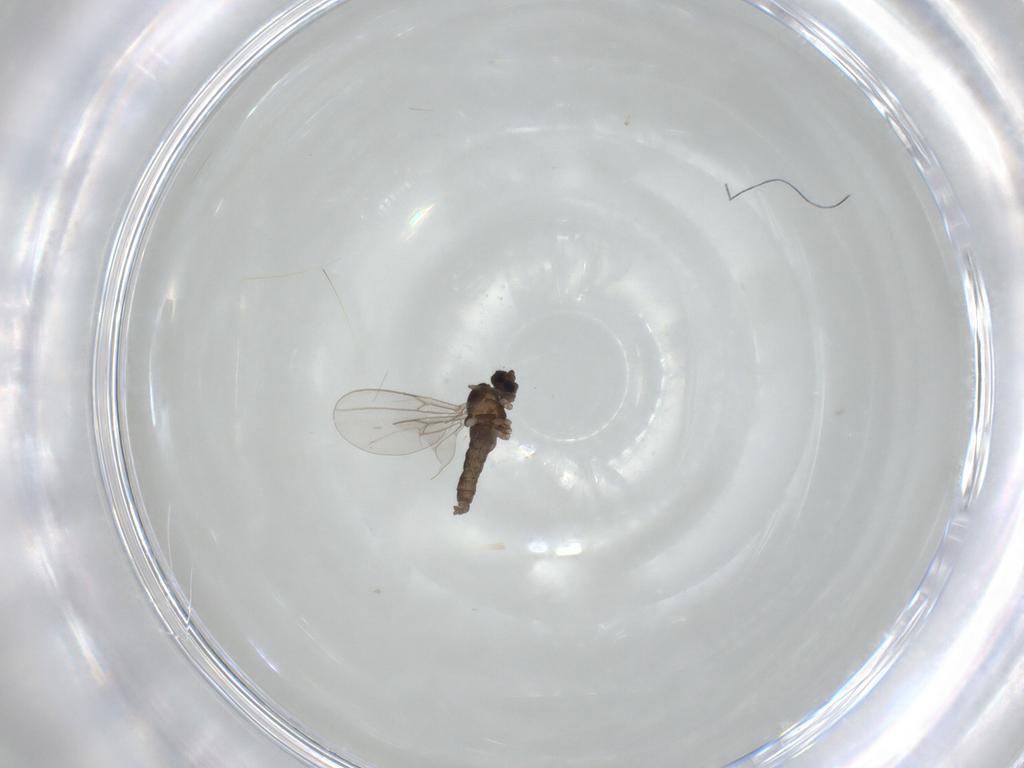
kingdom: Animalia
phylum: Arthropoda
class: Insecta
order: Diptera
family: Cecidomyiidae
